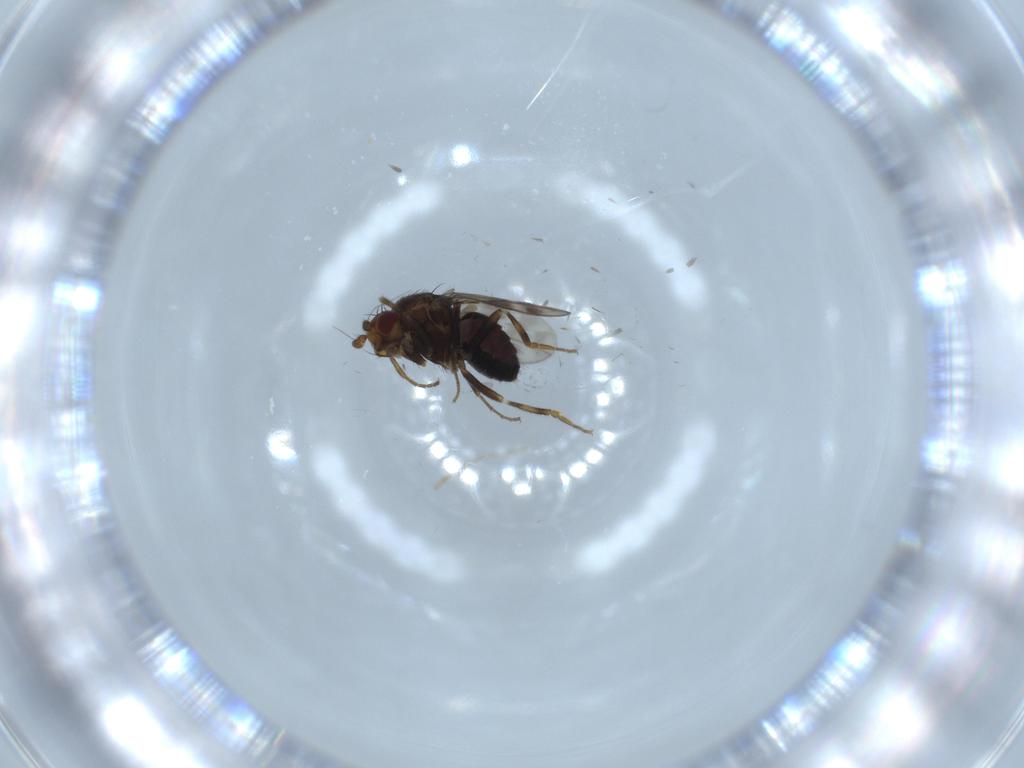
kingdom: Animalia
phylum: Arthropoda
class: Insecta
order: Diptera
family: Sphaeroceridae
